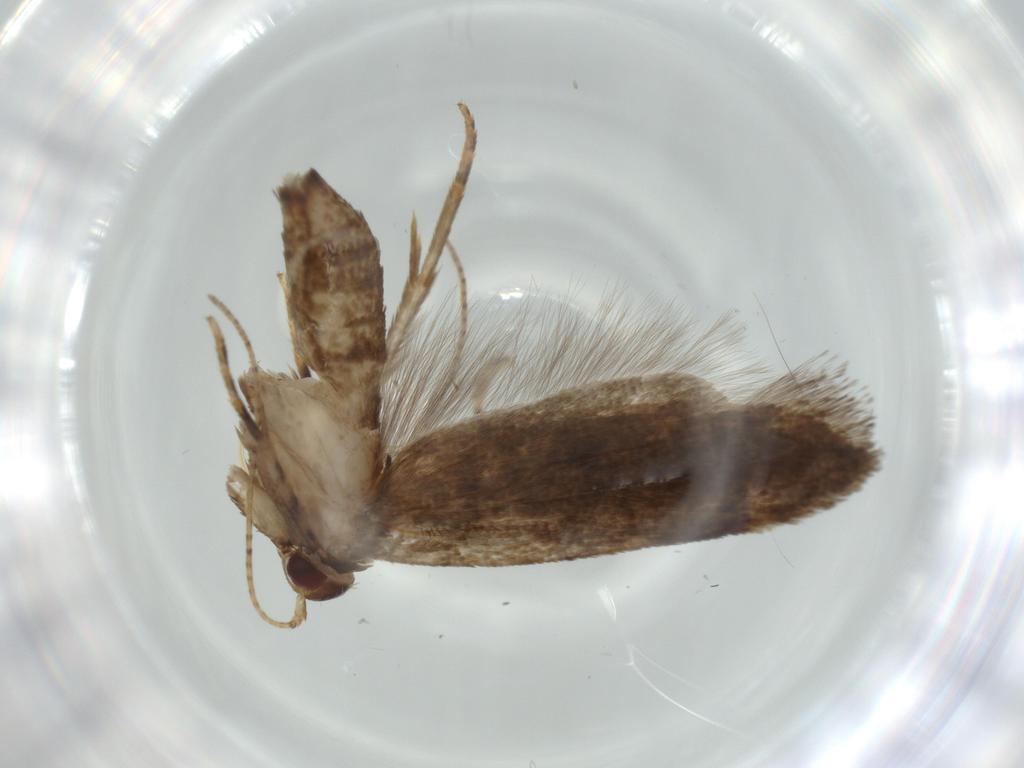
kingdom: Animalia
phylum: Arthropoda
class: Insecta
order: Lepidoptera
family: Cosmopterigidae
